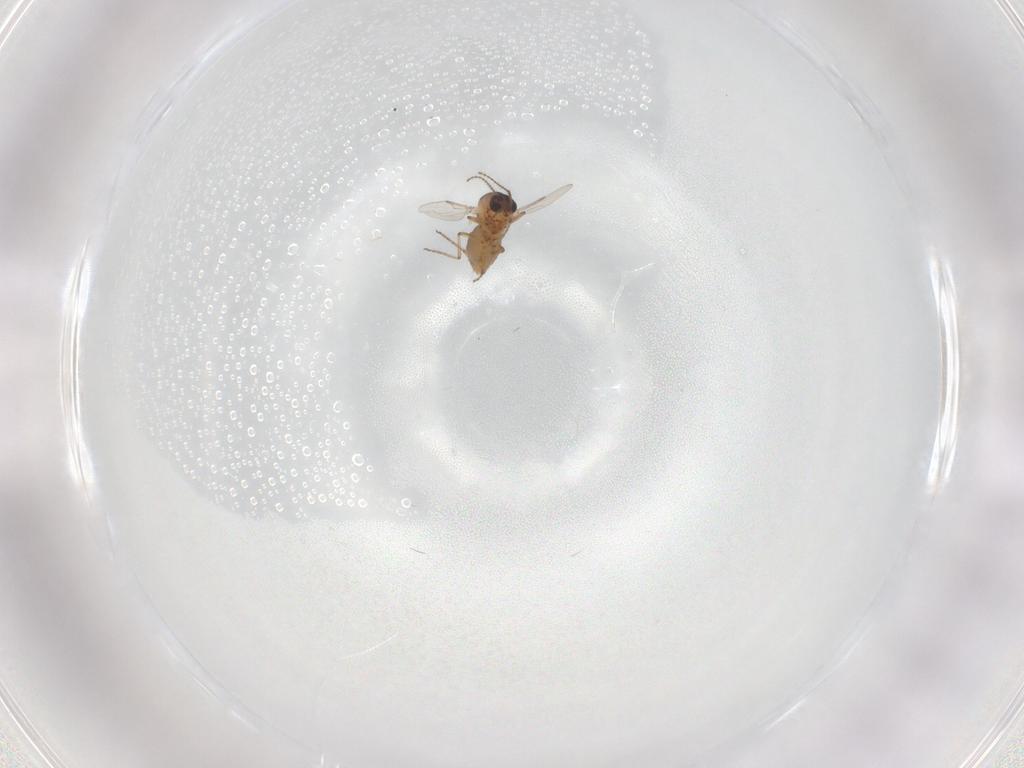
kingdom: Animalia
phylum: Arthropoda
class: Insecta
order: Diptera
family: Ceratopogonidae
